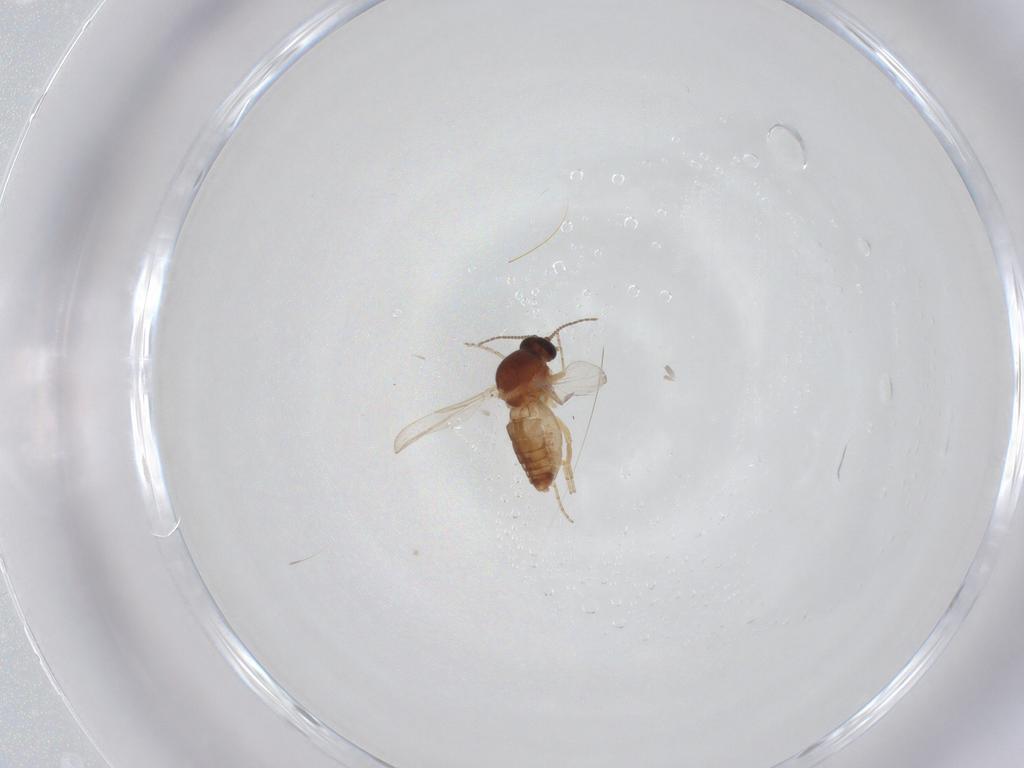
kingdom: Animalia
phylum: Arthropoda
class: Insecta
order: Diptera
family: Ceratopogonidae
